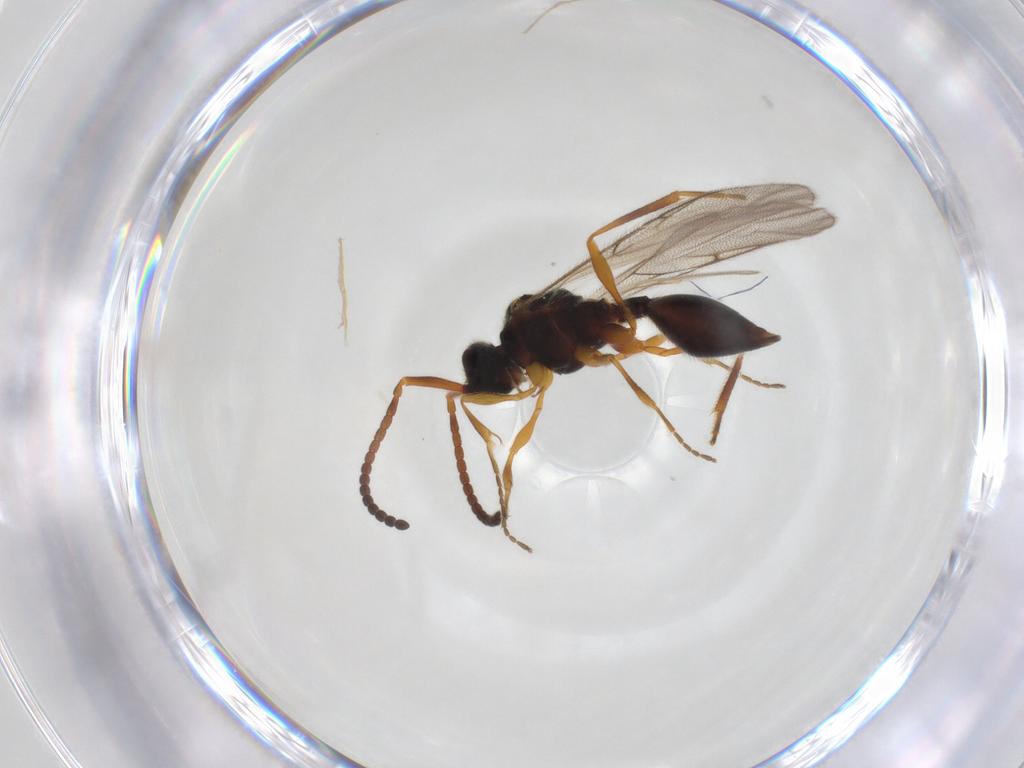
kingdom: Animalia
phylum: Arthropoda
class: Insecta
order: Hymenoptera
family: Diapriidae
